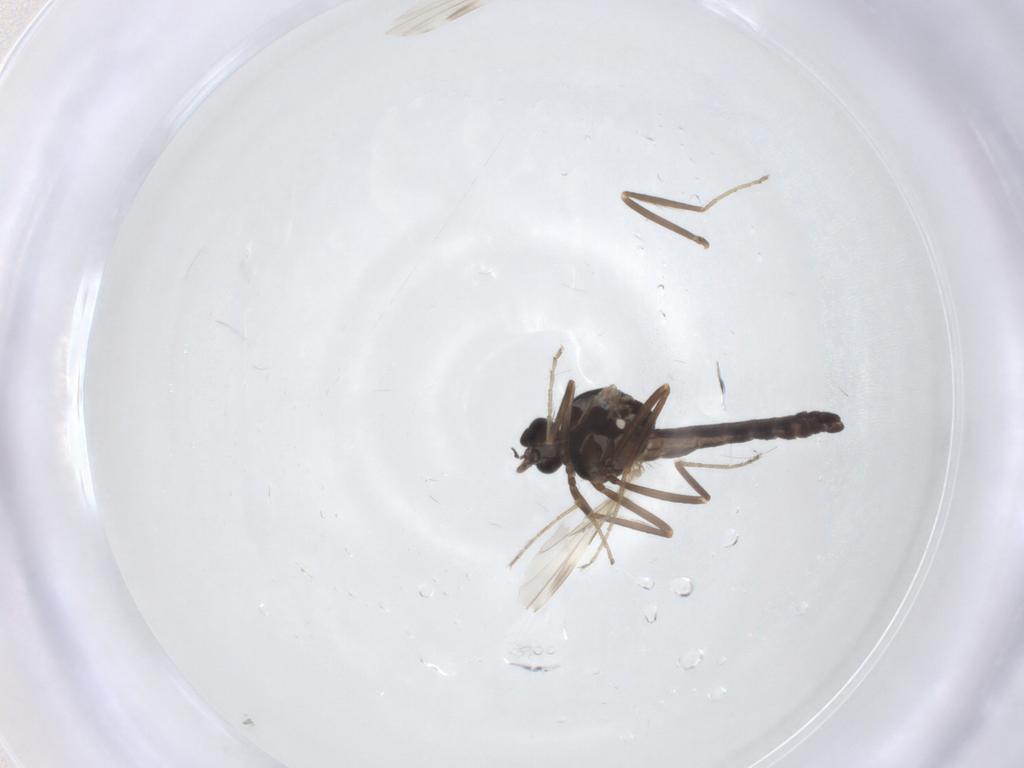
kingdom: Animalia
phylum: Arthropoda
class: Insecta
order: Diptera
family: Ceratopogonidae
